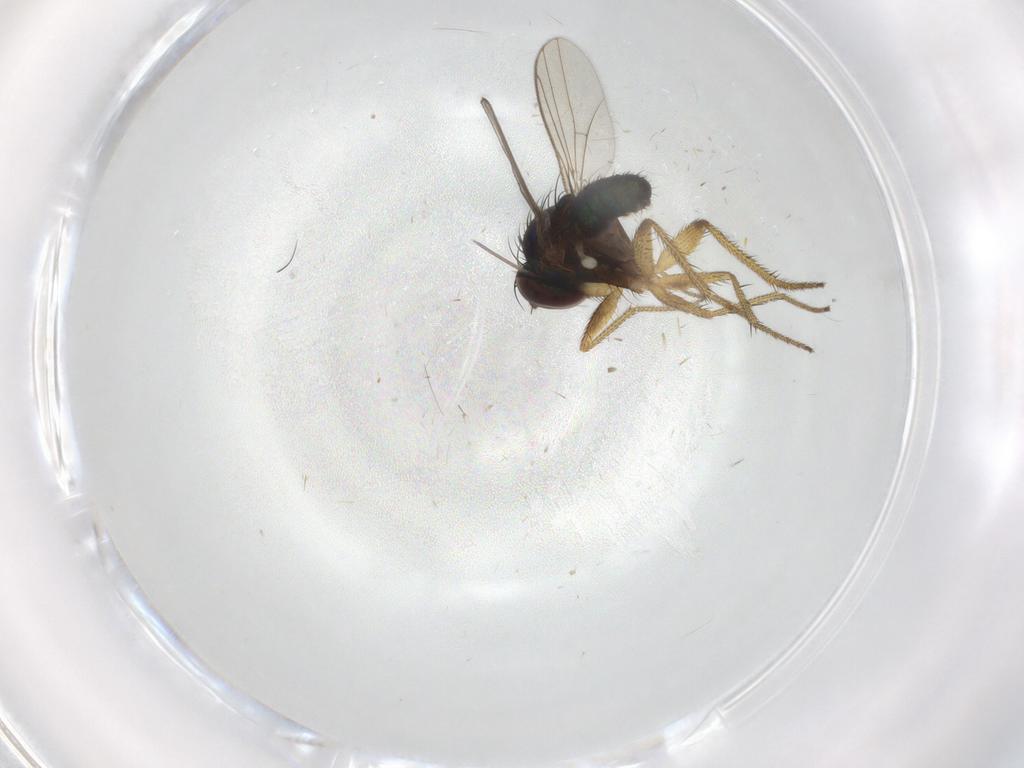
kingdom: Animalia
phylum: Arthropoda
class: Insecta
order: Diptera
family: Dolichopodidae
